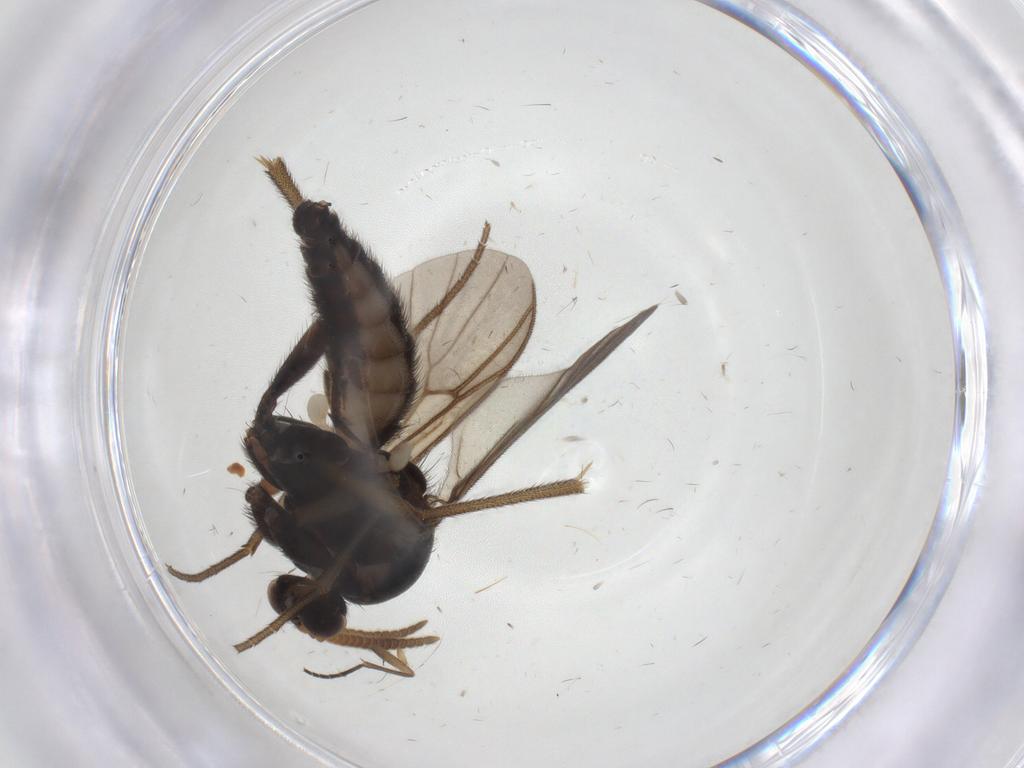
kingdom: Animalia
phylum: Arthropoda
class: Insecta
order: Diptera
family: Mycetophilidae
